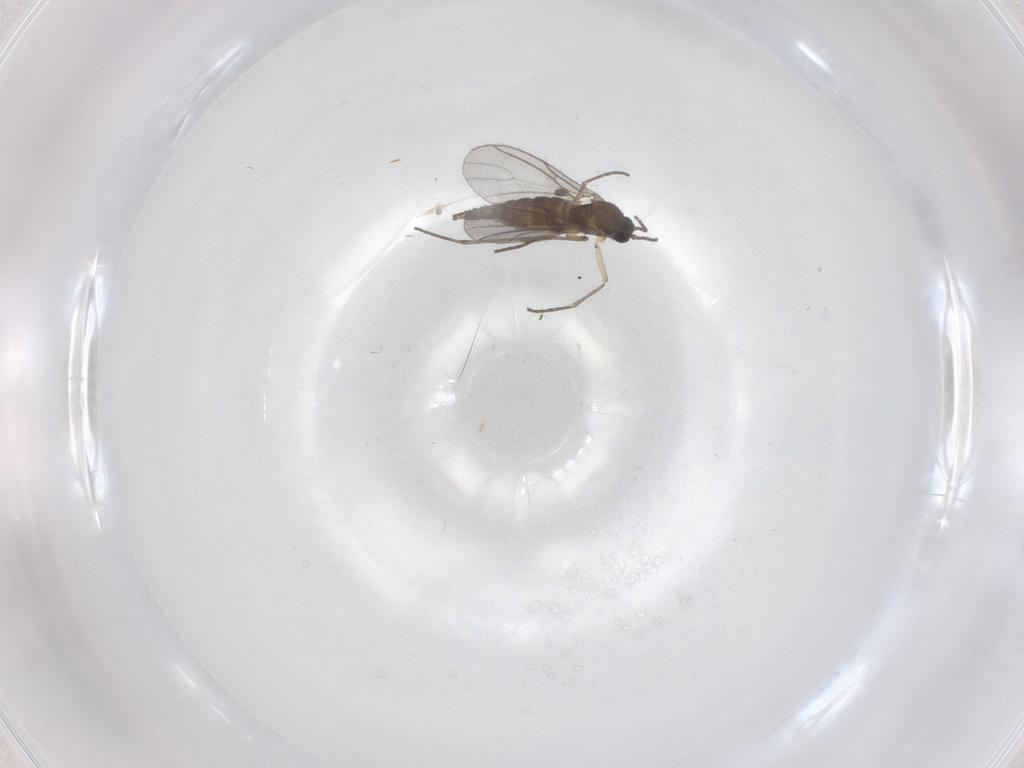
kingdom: Animalia
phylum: Arthropoda
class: Insecta
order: Diptera
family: Sciaridae
